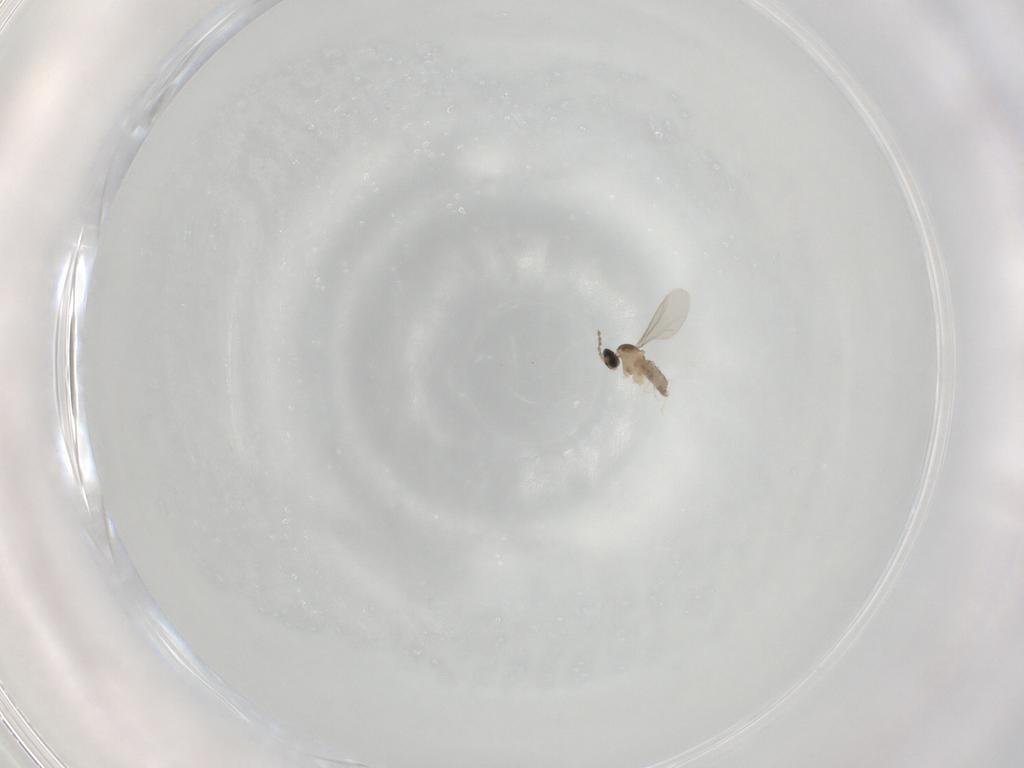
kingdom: Animalia
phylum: Arthropoda
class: Insecta
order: Diptera
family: Cecidomyiidae
